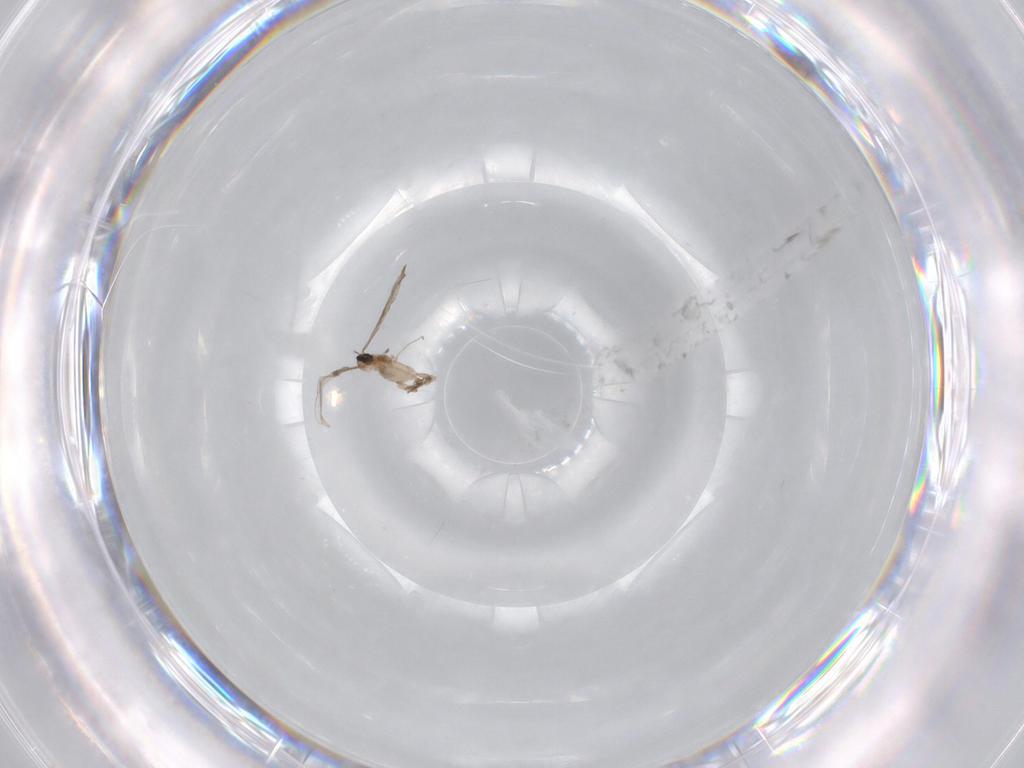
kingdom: Animalia
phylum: Arthropoda
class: Insecta
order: Diptera
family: Cecidomyiidae
